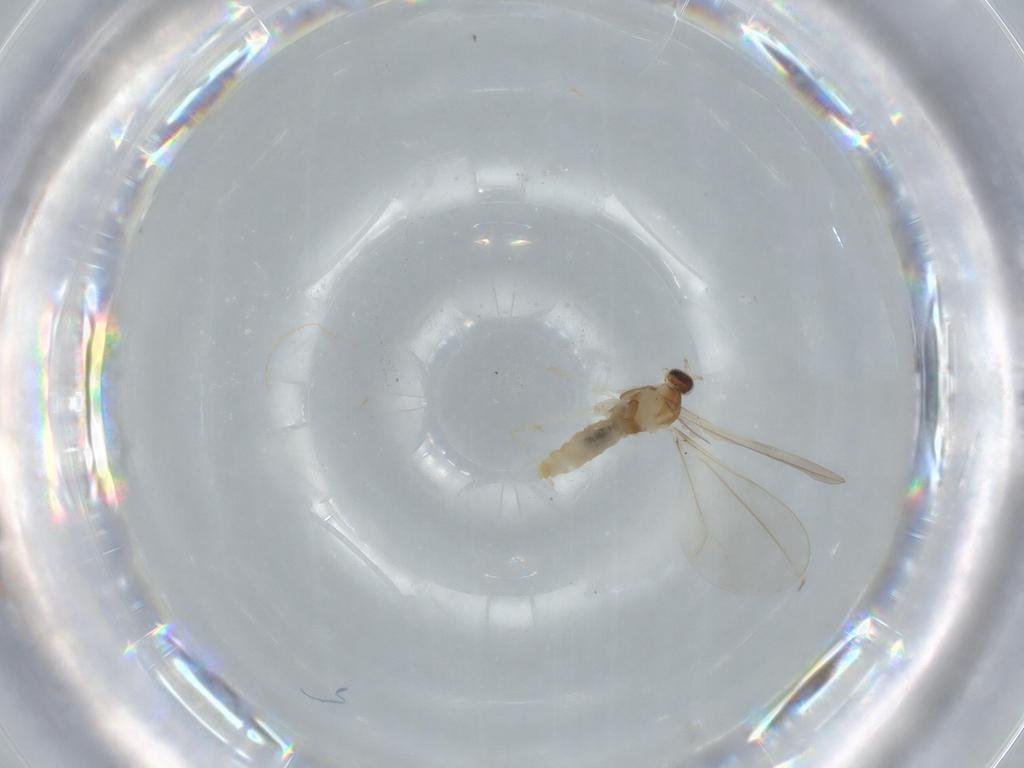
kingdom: Animalia
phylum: Arthropoda
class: Insecta
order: Diptera
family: Cecidomyiidae
